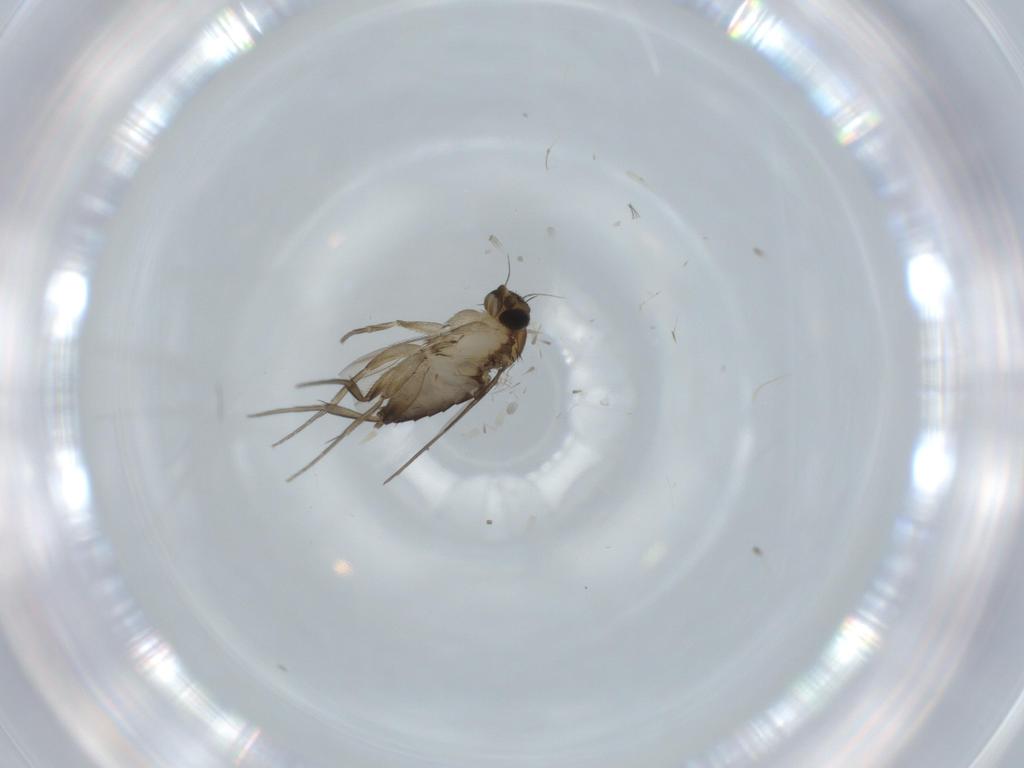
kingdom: Animalia
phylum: Arthropoda
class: Insecta
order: Diptera
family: Phoridae
